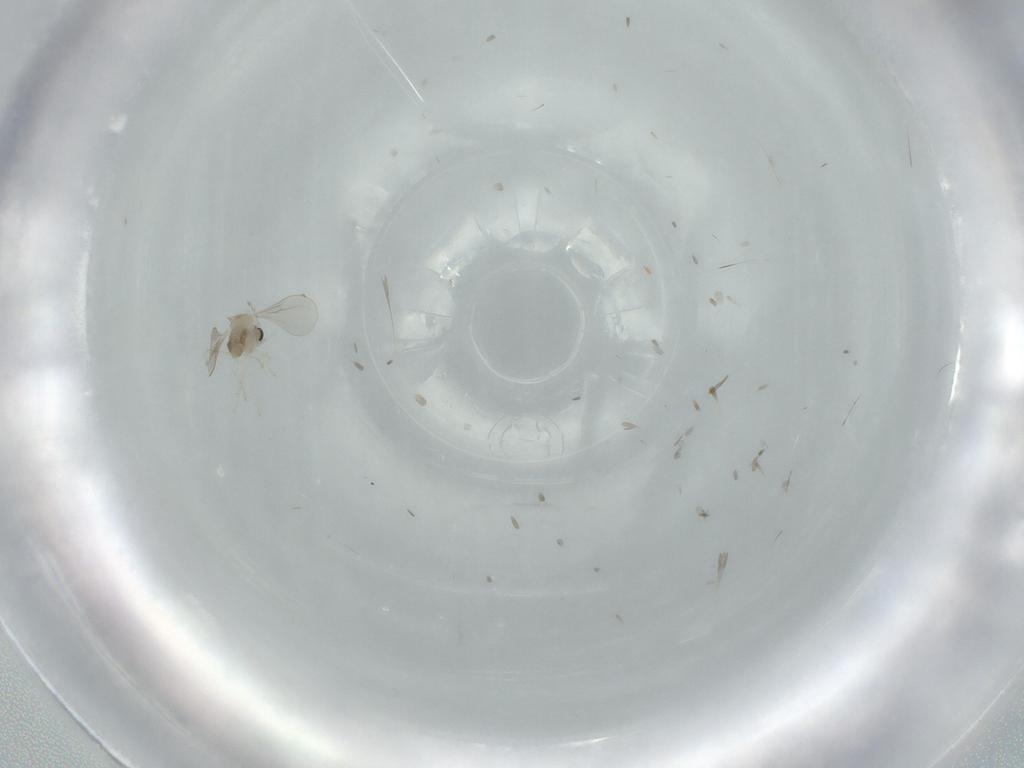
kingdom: Animalia
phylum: Arthropoda
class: Insecta
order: Diptera
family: Cecidomyiidae
